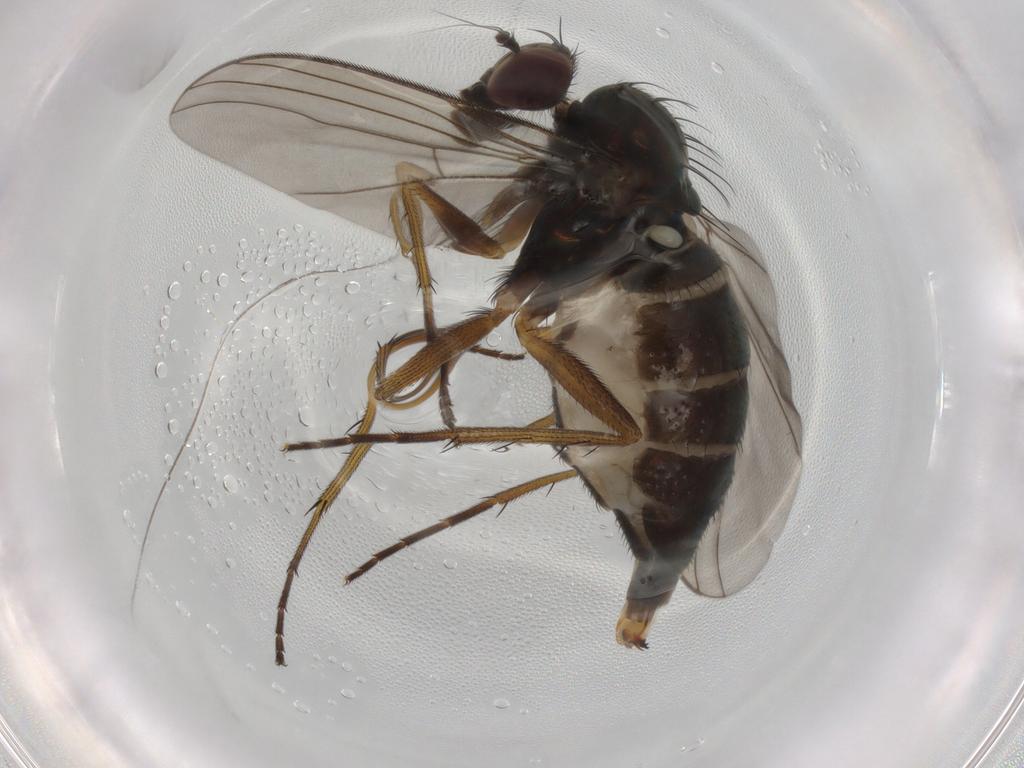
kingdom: Animalia
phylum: Arthropoda
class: Insecta
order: Diptera
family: Dolichopodidae
